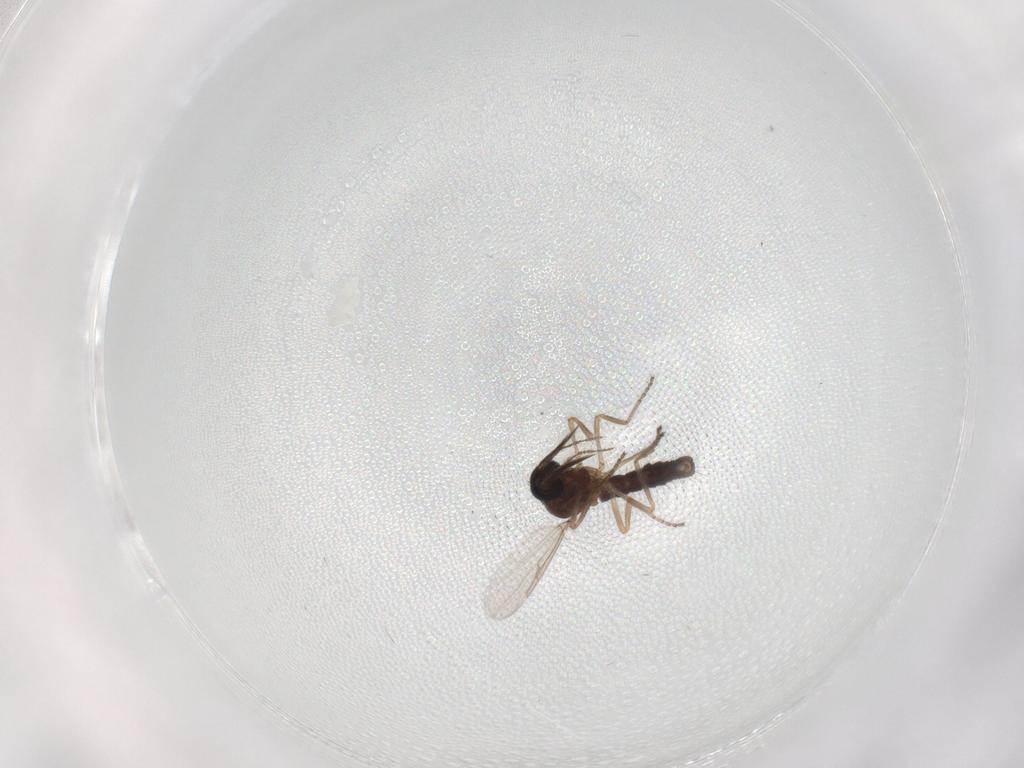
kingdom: Animalia
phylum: Arthropoda
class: Insecta
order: Diptera
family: Ceratopogonidae
